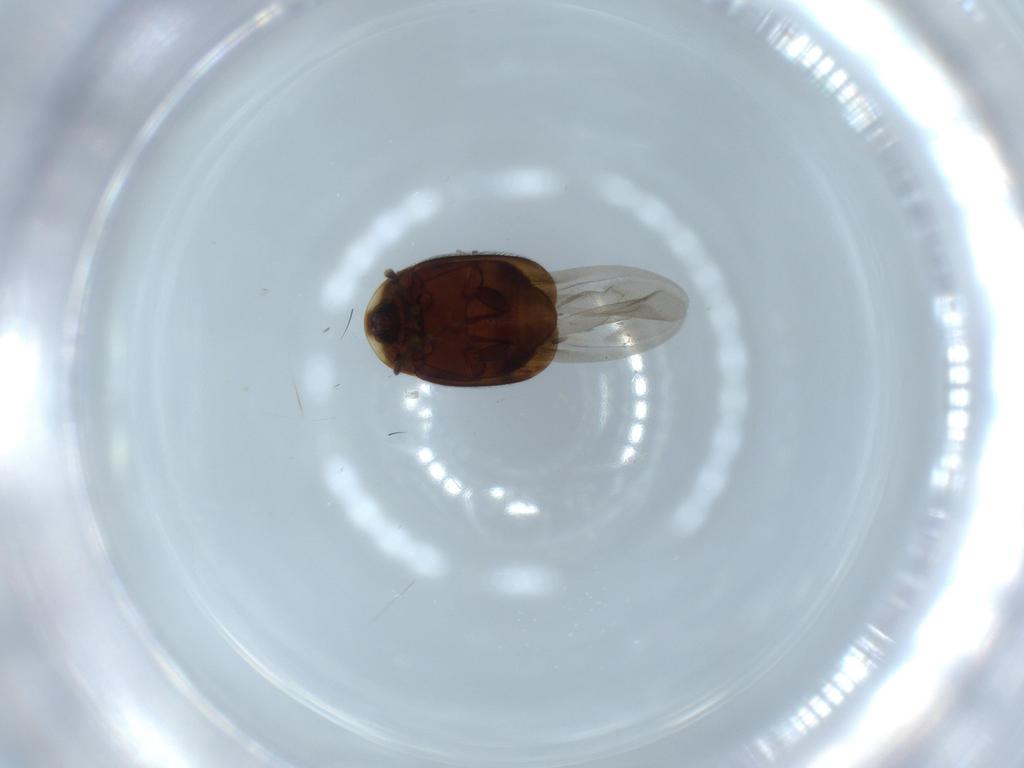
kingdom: Animalia
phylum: Arthropoda
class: Insecta
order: Coleoptera
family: Corylophidae
